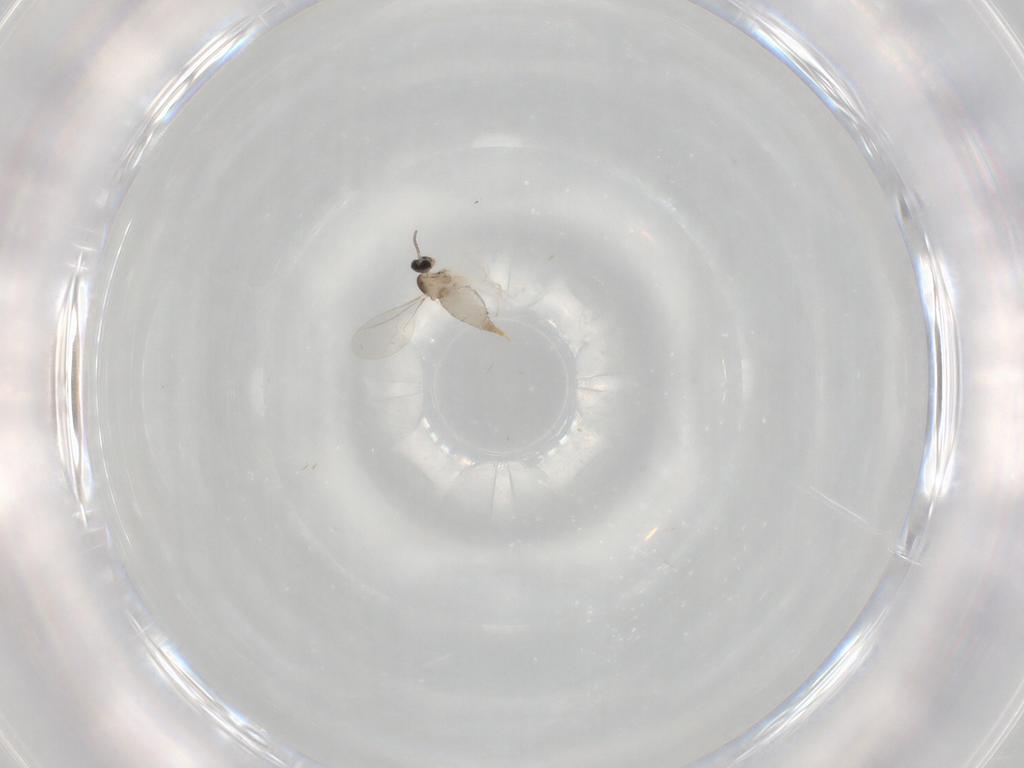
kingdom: Animalia
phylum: Arthropoda
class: Insecta
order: Diptera
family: Cecidomyiidae
